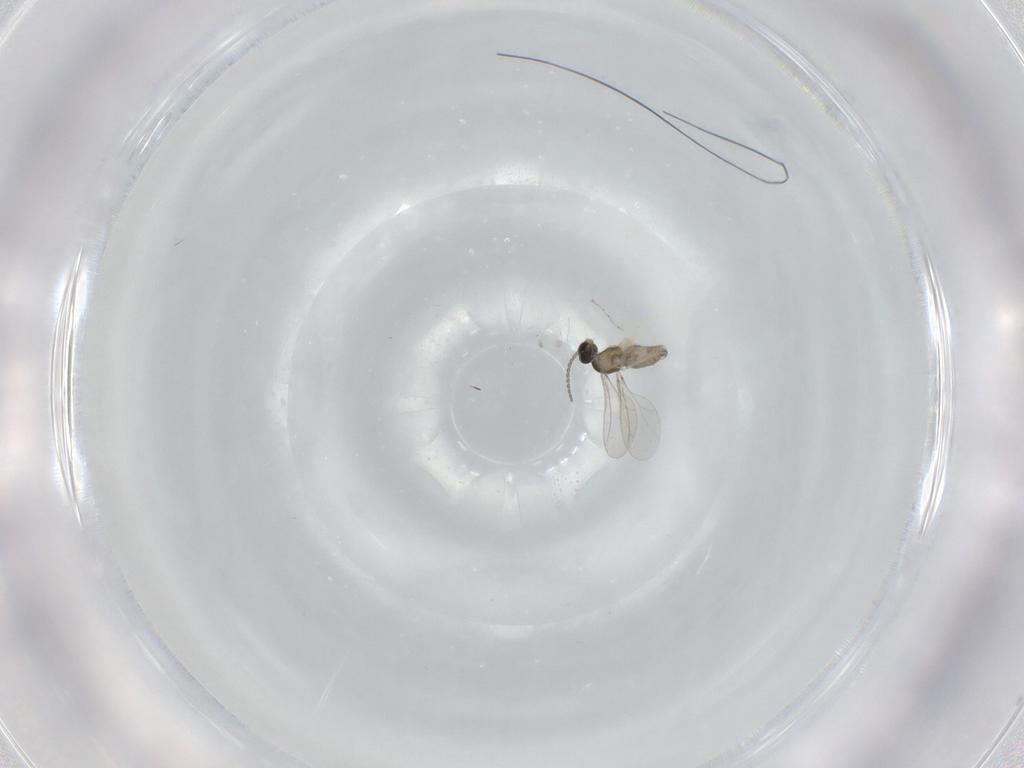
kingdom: Animalia
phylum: Arthropoda
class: Insecta
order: Diptera
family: Cecidomyiidae
